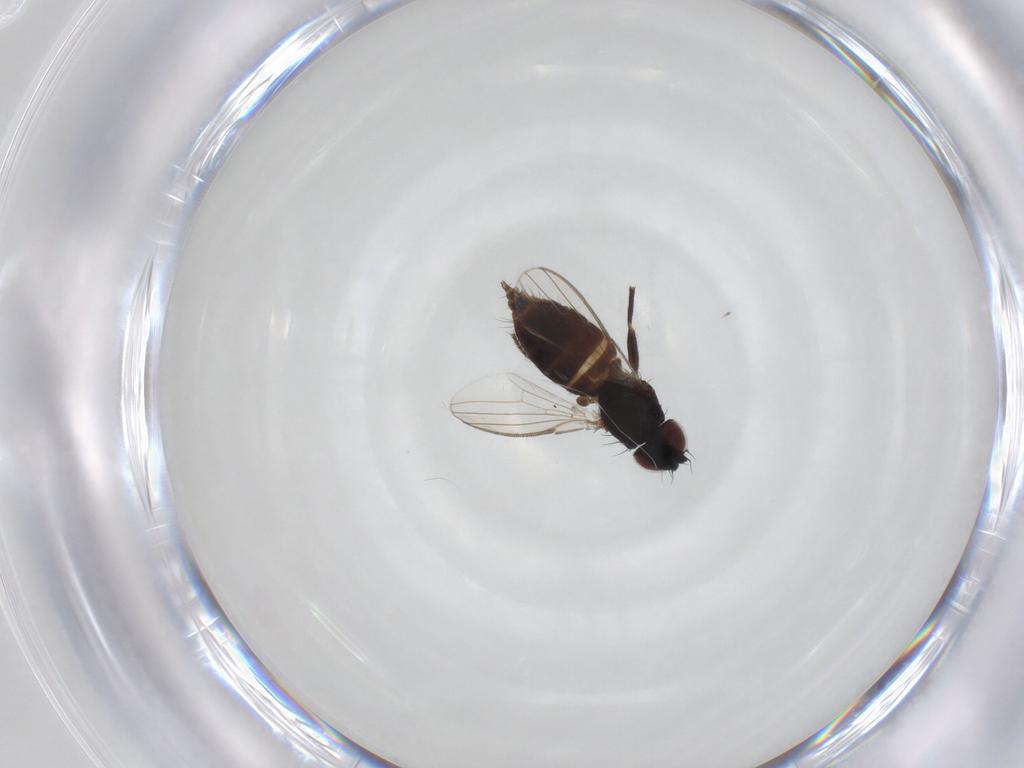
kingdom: Animalia
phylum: Arthropoda
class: Insecta
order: Diptera
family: Milichiidae
